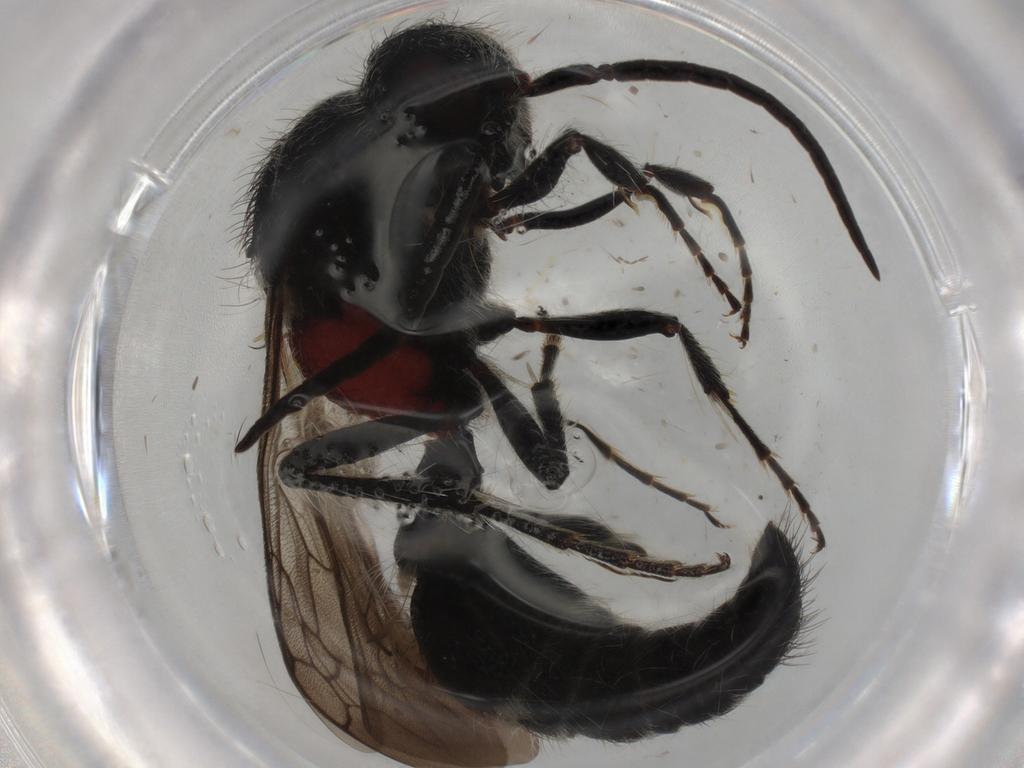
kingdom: Animalia
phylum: Arthropoda
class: Insecta
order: Hymenoptera
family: Mutillidae
